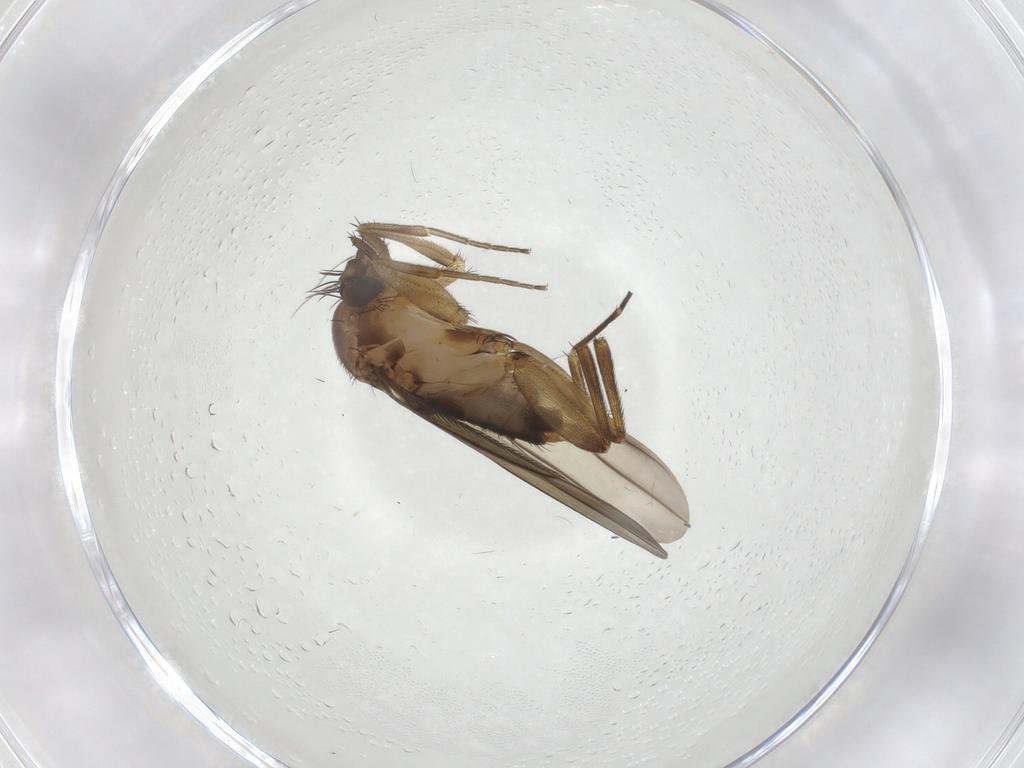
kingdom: Animalia
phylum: Arthropoda
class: Insecta
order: Diptera
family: Phoridae
